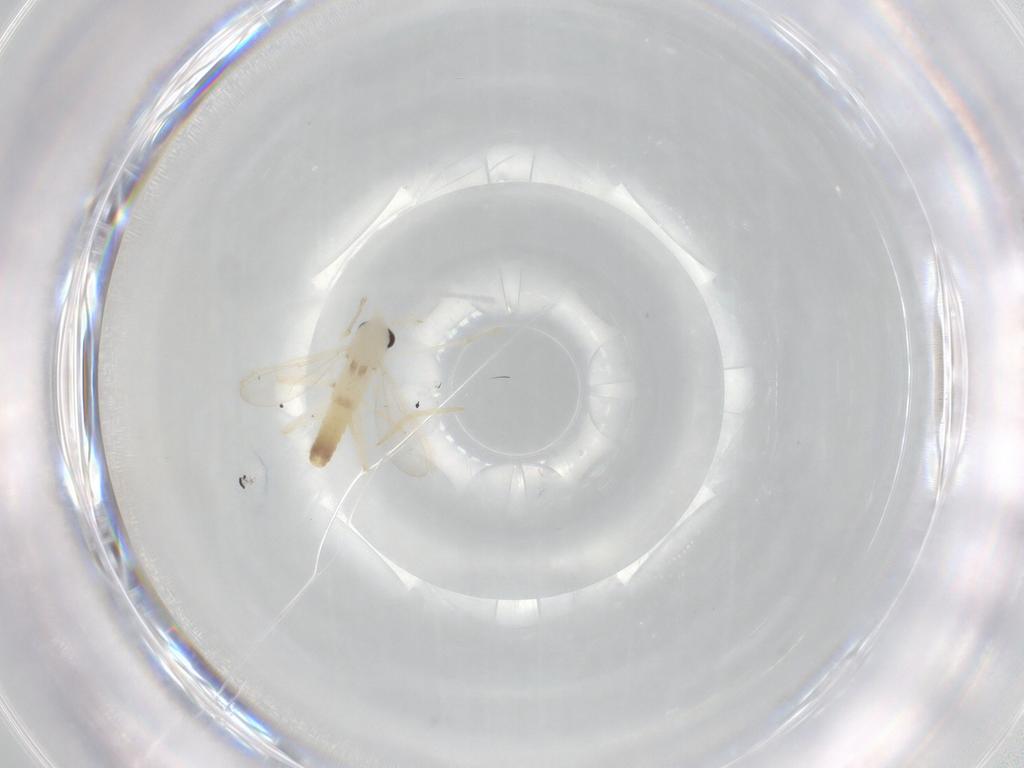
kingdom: Animalia
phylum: Arthropoda
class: Insecta
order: Diptera
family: Chironomidae
